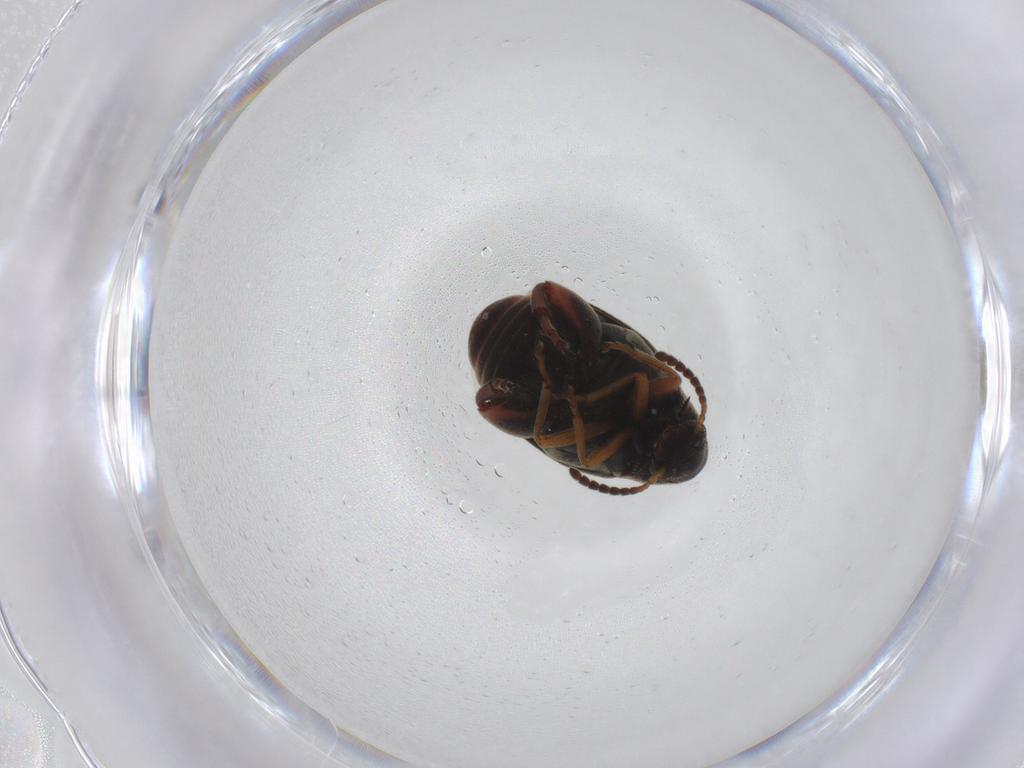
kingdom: Animalia
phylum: Arthropoda
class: Insecta
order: Coleoptera
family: Chrysomelidae
